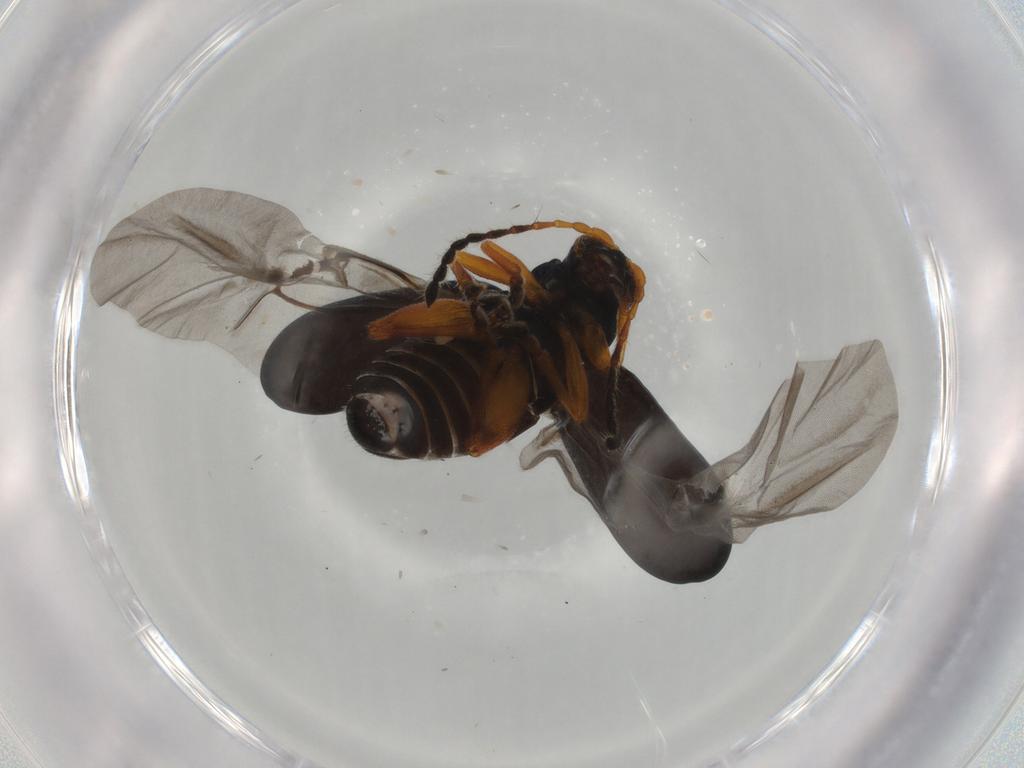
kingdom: Animalia
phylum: Arthropoda
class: Insecta
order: Coleoptera
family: Chrysomelidae
